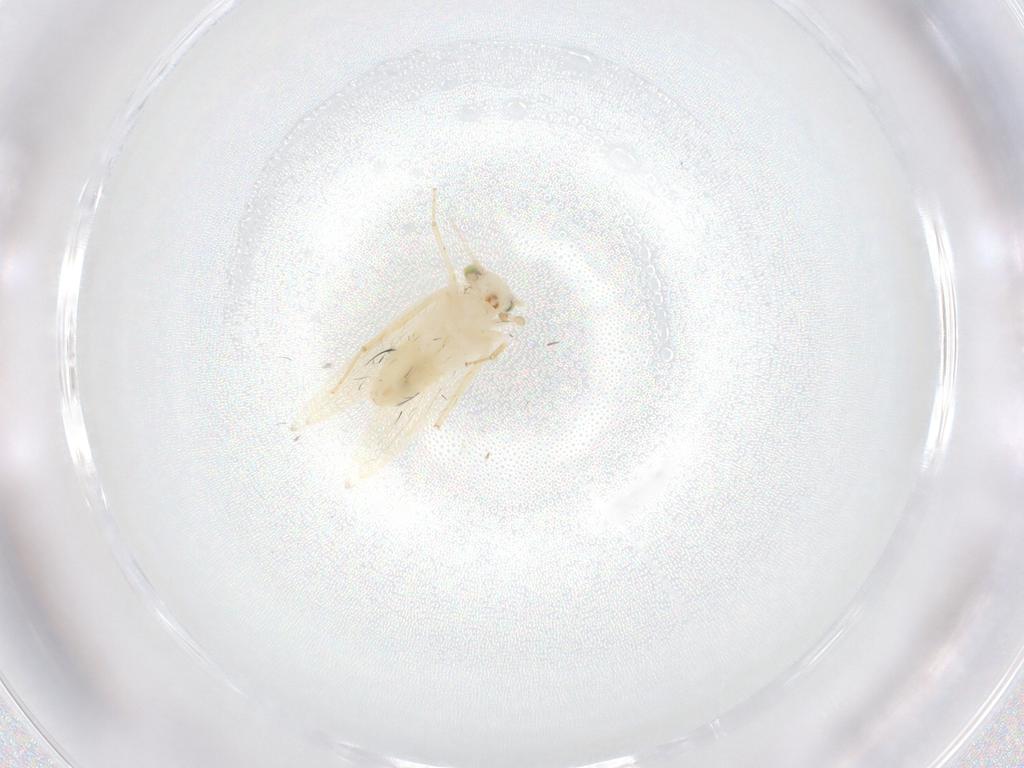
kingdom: Animalia
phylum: Arthropoda
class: Insecta
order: Psocodea
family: Lepidopsocidae
